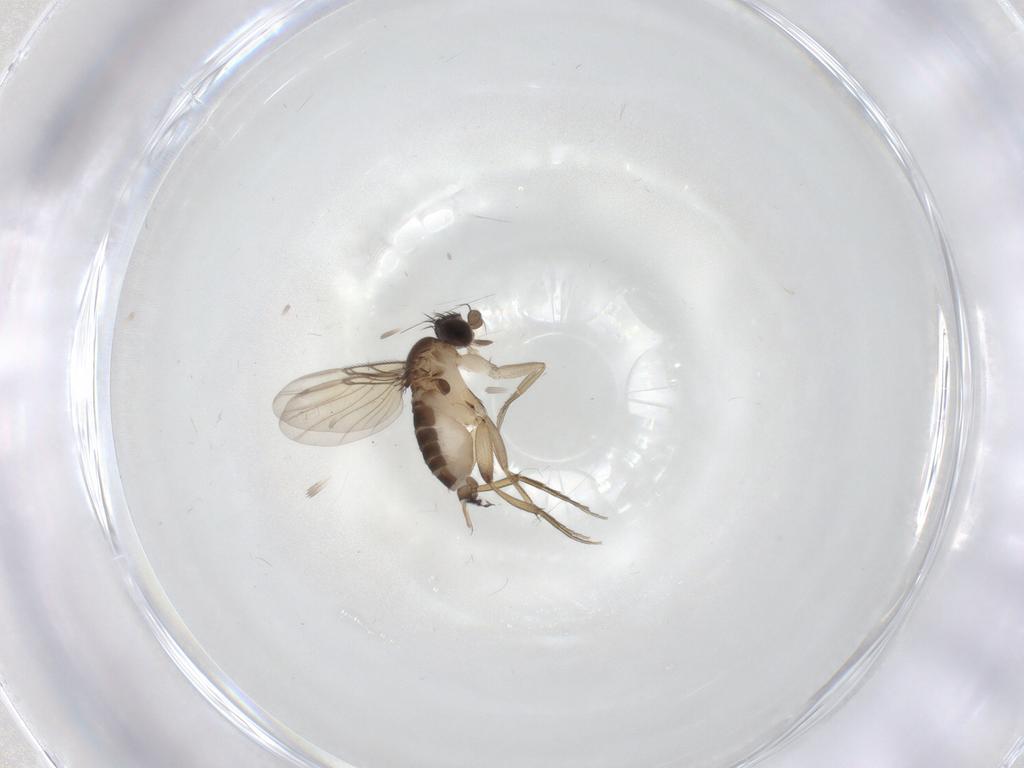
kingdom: Animalia
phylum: Arthropoda
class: Insecta
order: Diptera
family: Phoridae
